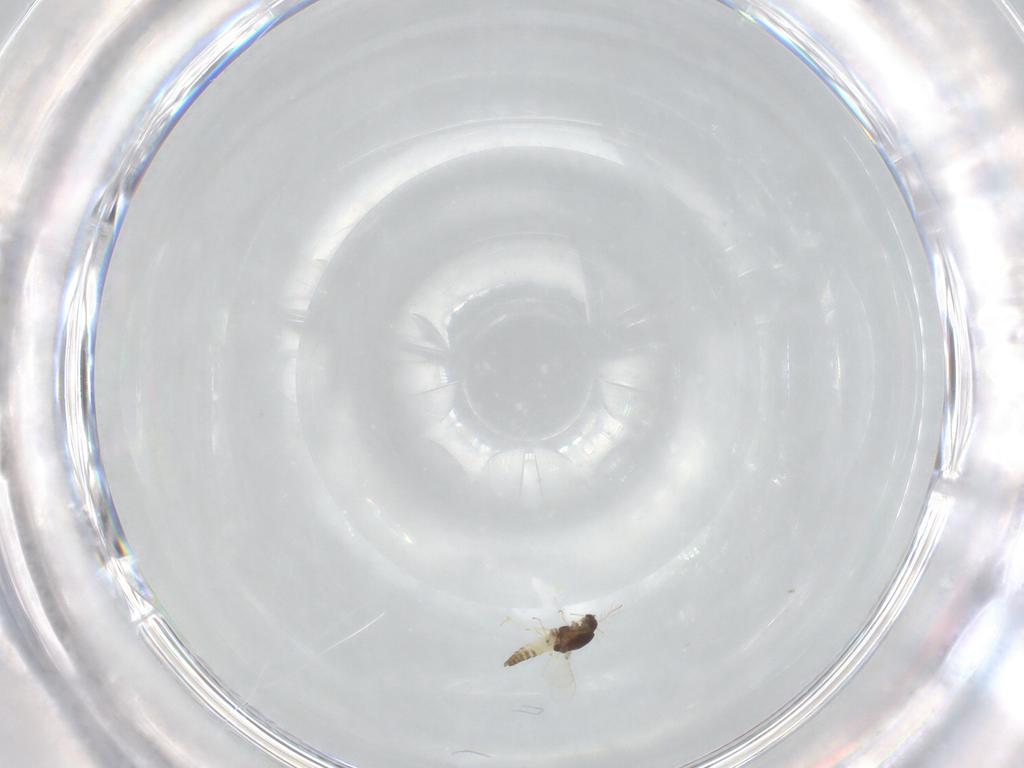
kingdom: Animalia
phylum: Arthropoda
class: Insecta
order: Diptera
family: Chironomidae
